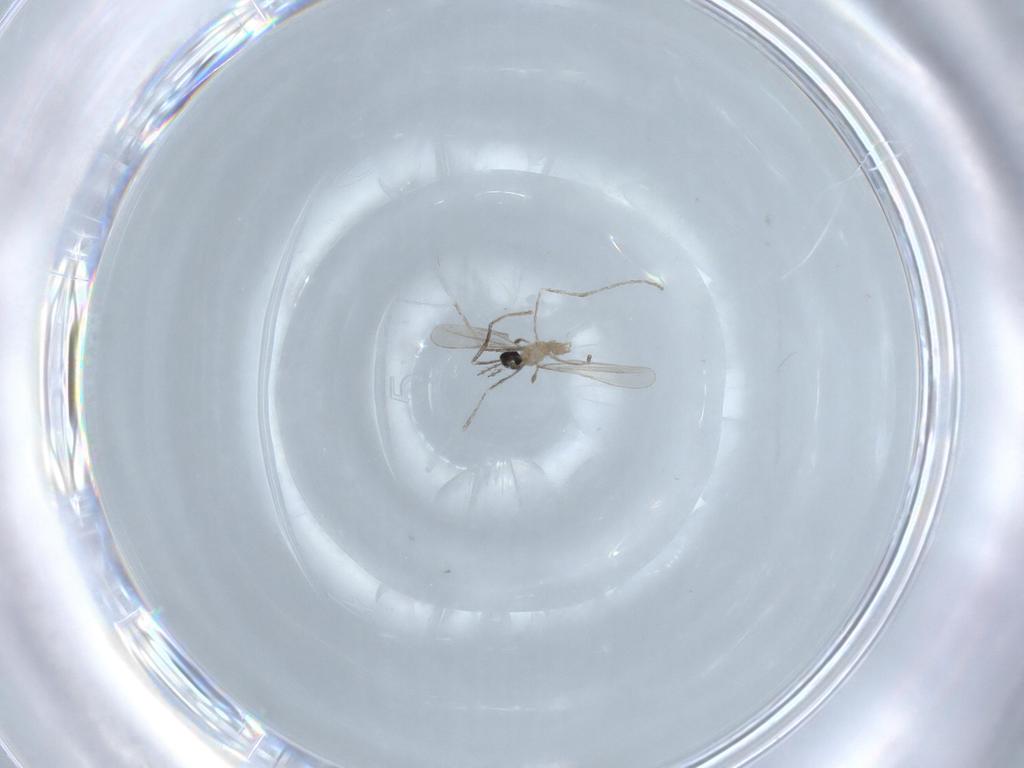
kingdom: Animalia
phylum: Arthropoda
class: Insecta
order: Diptera
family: Cecidomyiidae
